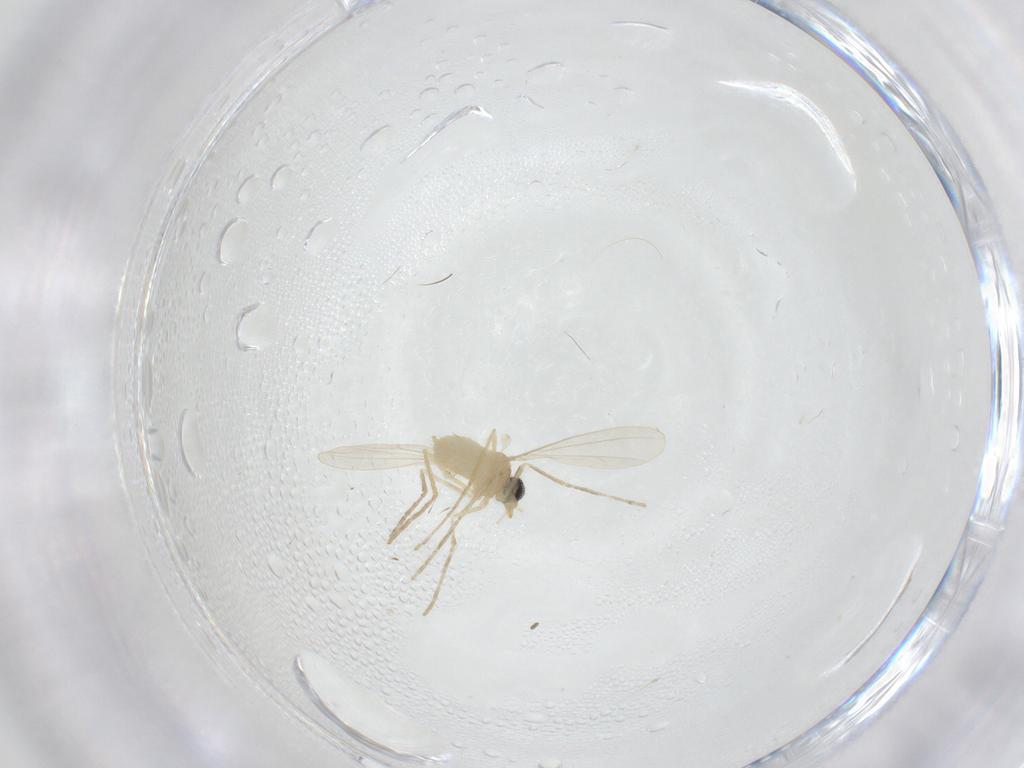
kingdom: Animalia
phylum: Arthropoda
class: Insecta
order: Diptera
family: Cecidomyiidae
